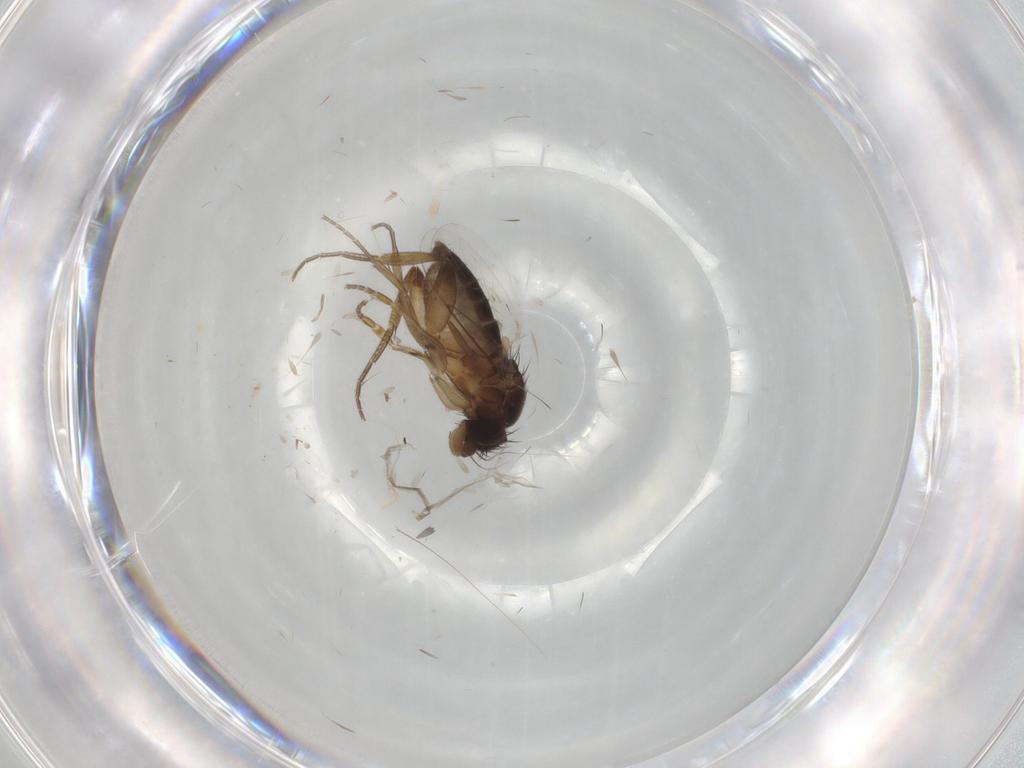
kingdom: Animalia
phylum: Arthropoda
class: Insecta
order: Diptera
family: Phoridae
